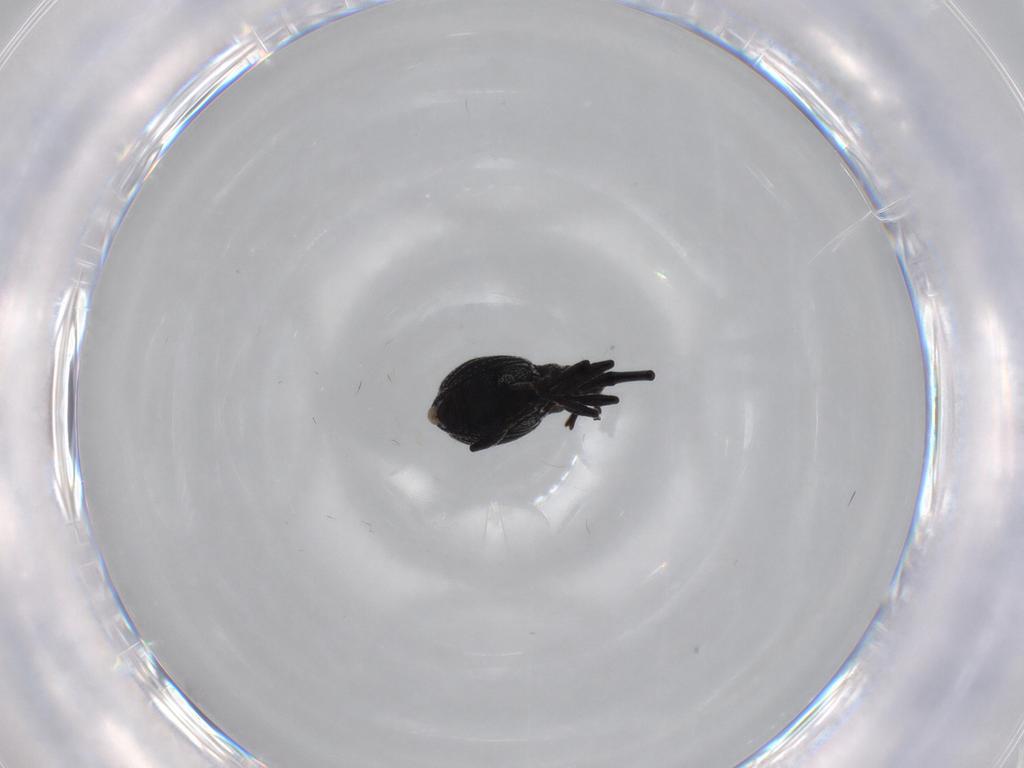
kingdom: Animalia
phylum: Arthropoda
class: Insecta
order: Coleoptera
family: Brentidae
